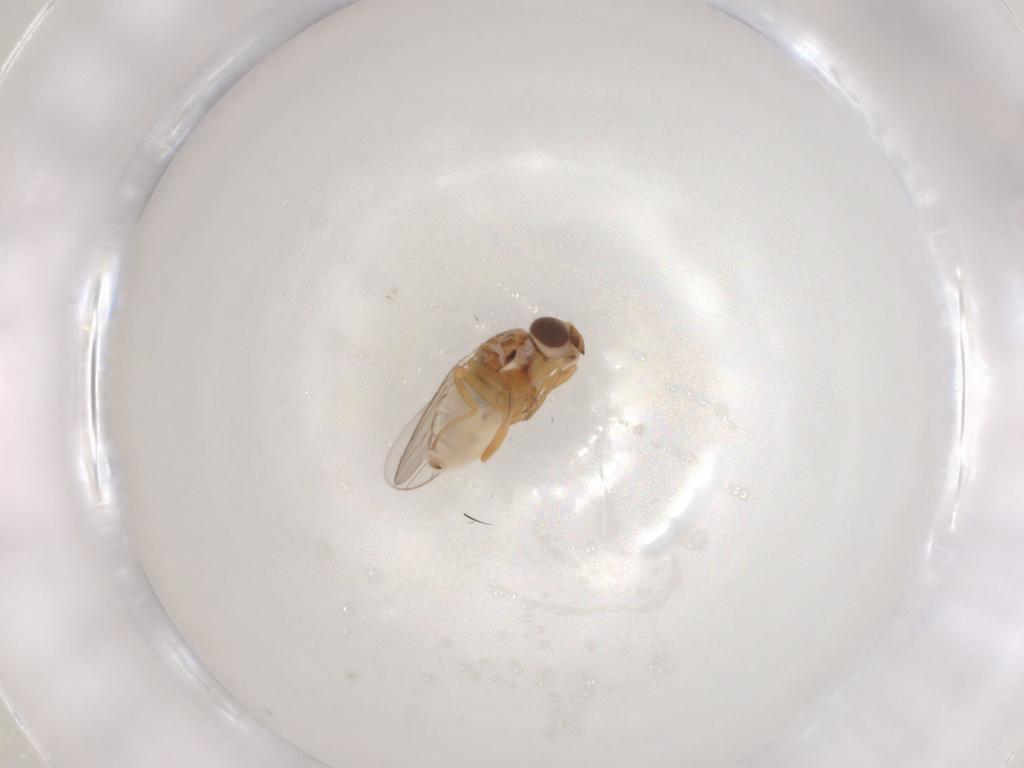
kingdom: Animalia
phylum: Arthropoda
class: Insecta
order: Diptera
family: Chloropidae
